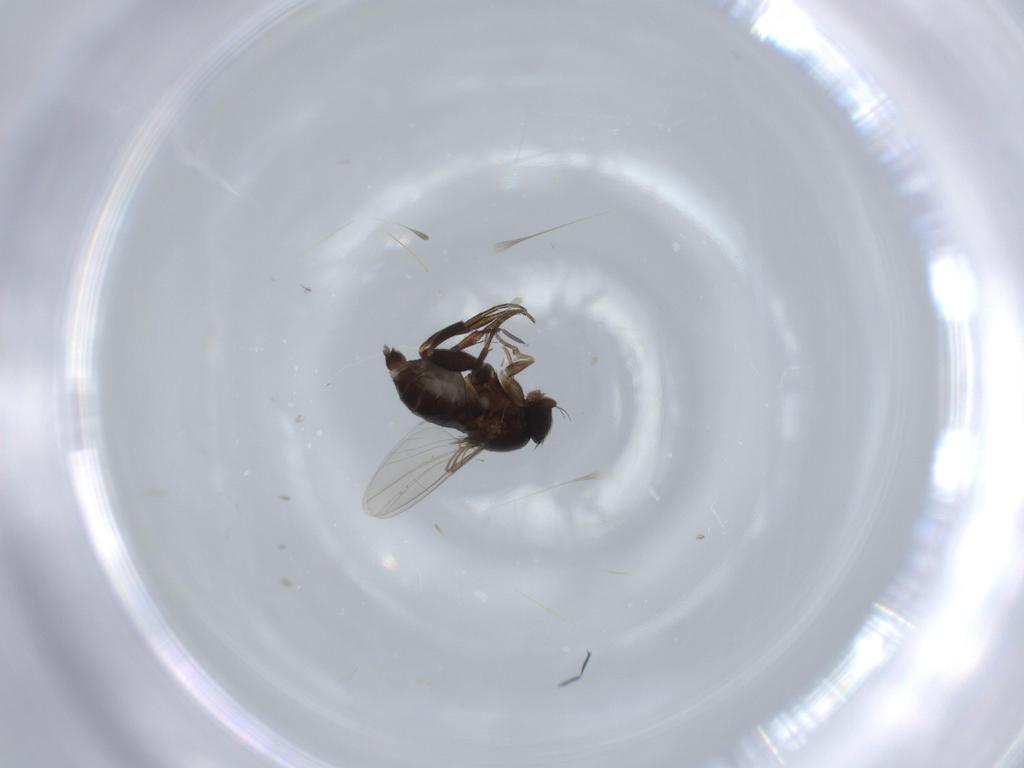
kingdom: Animalia
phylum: Arthropoda
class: Insecta
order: Diptera
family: Phoridae
